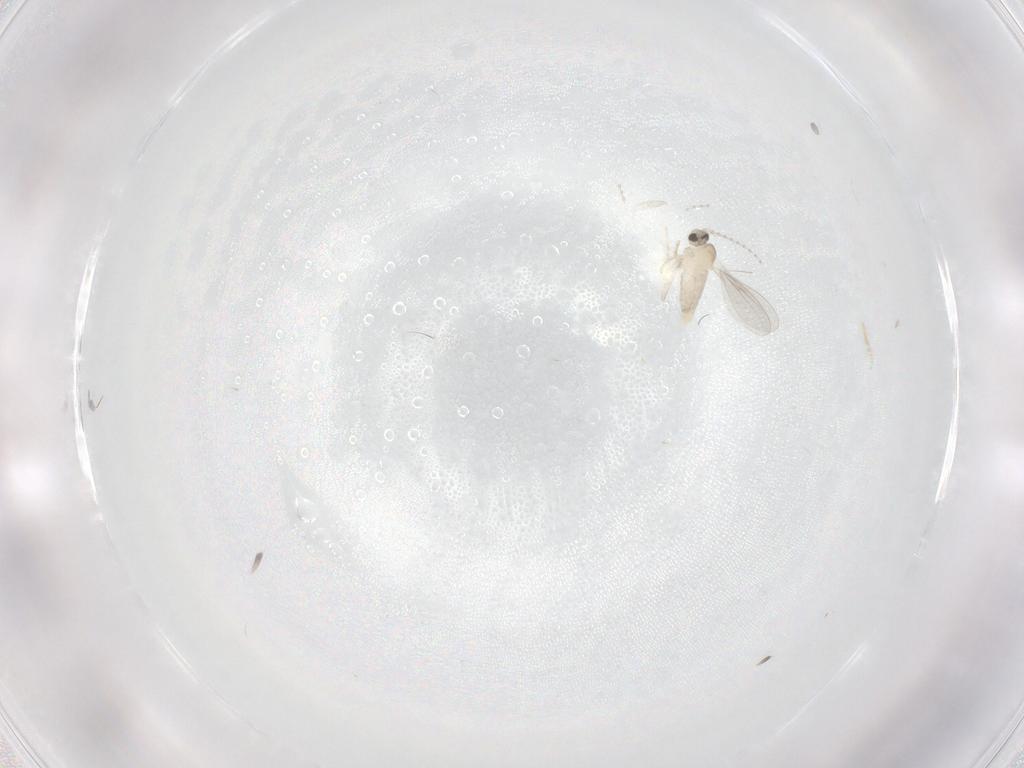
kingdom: Animalia
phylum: Arthropoda
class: Insecta
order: Diptera
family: Cecidomyiidae
